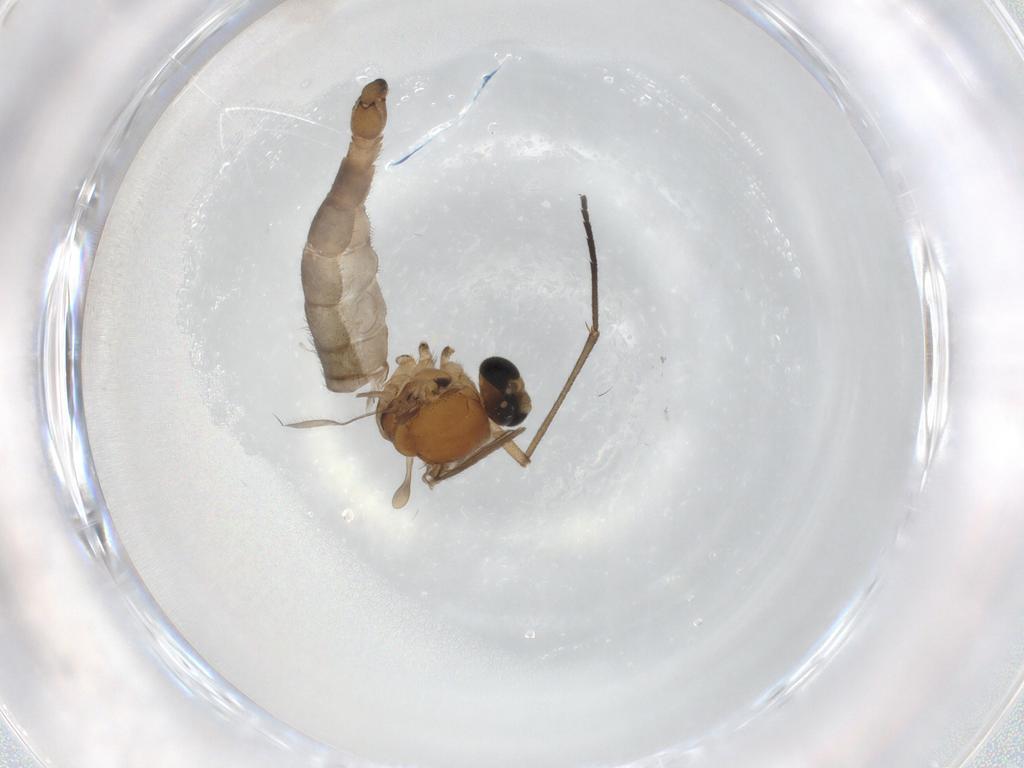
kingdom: Animalia
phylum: Arthropoda
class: Insecta
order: Diptera
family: Sciaridae
